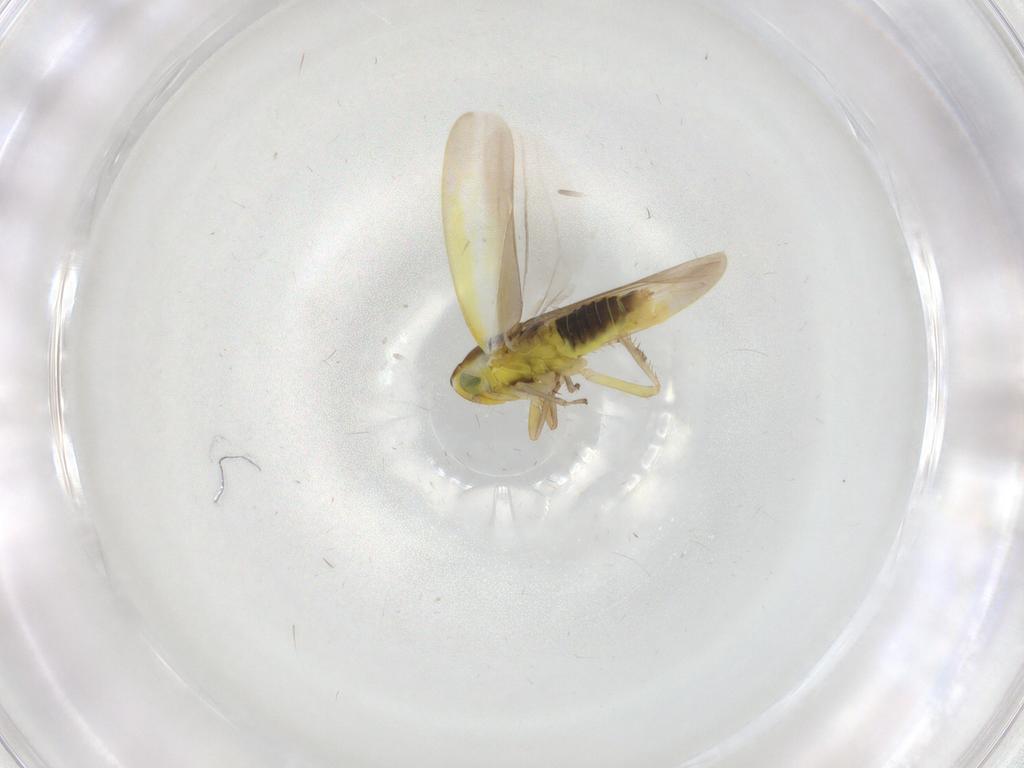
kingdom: Animalia
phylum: Arthropoda
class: Insecta
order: Hemiptera
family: Cicadellidae
